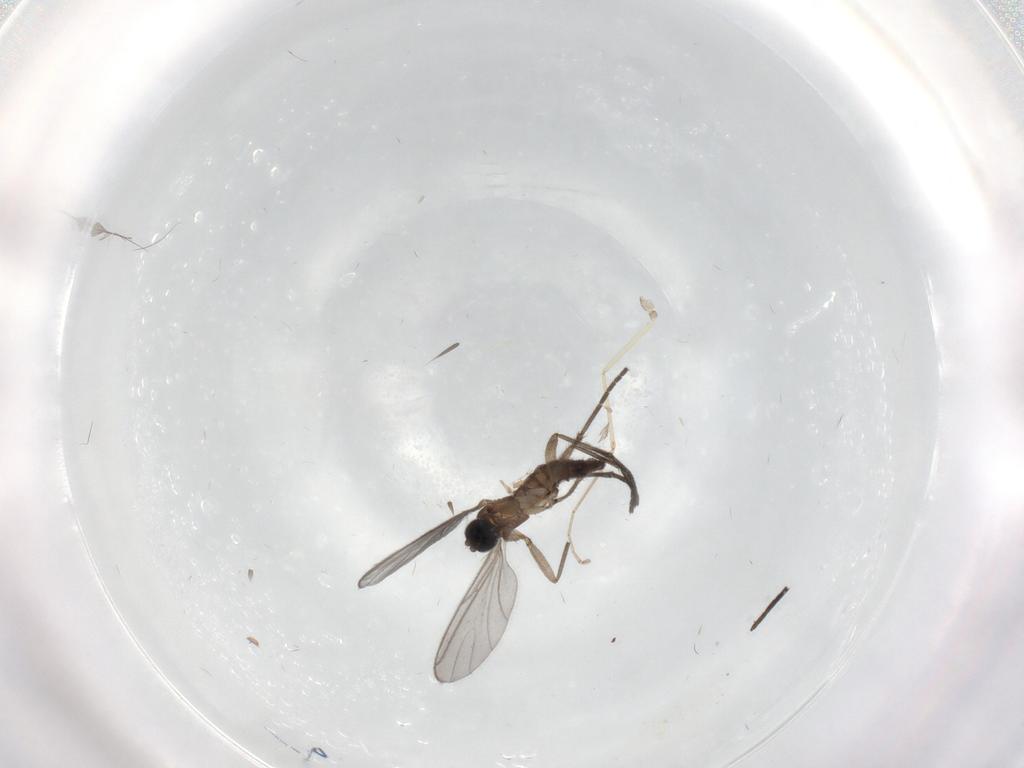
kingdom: Animalia
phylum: Arthropoda
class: Insecta
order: Diptera
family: Sciaridae
